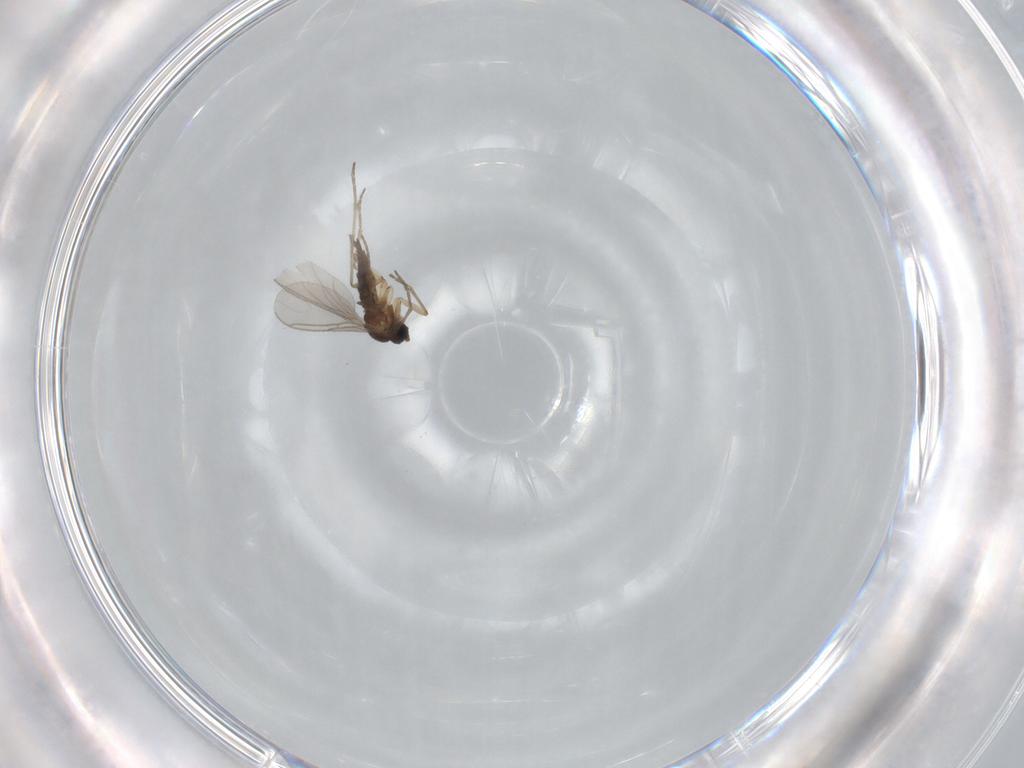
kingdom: Animalia
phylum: Arthropoda
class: Insecta
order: Diptera
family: Sciaridae
